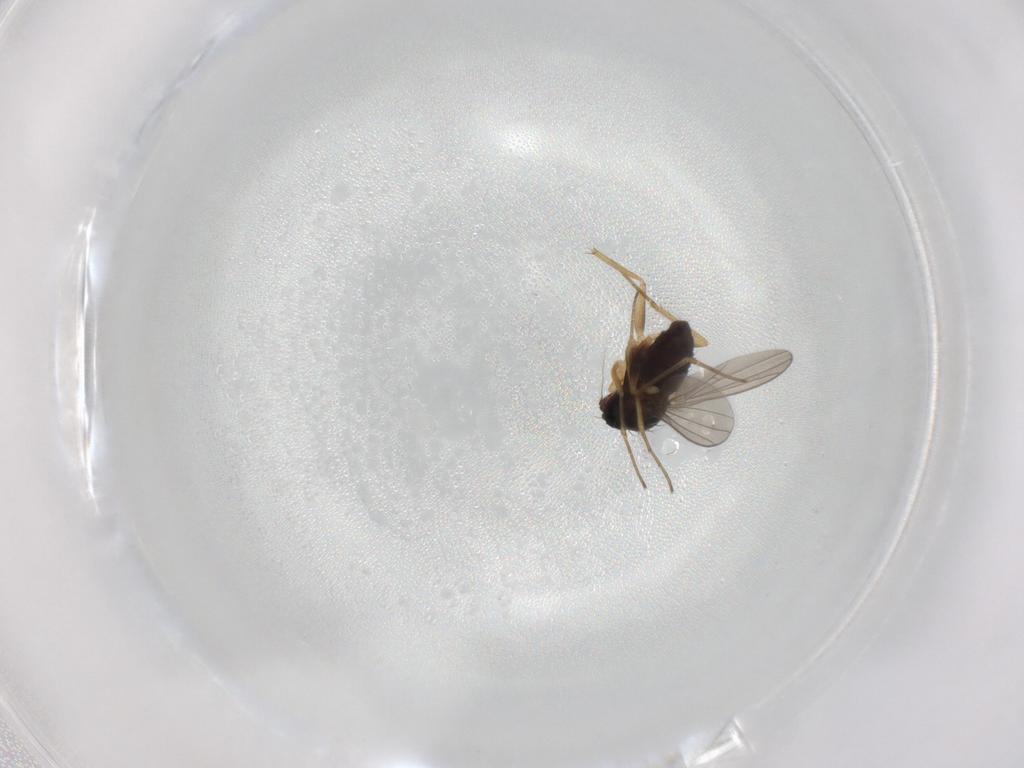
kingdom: Animalia
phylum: Arthropoda
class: Insecta
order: Diptera
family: Dolichopodidae
